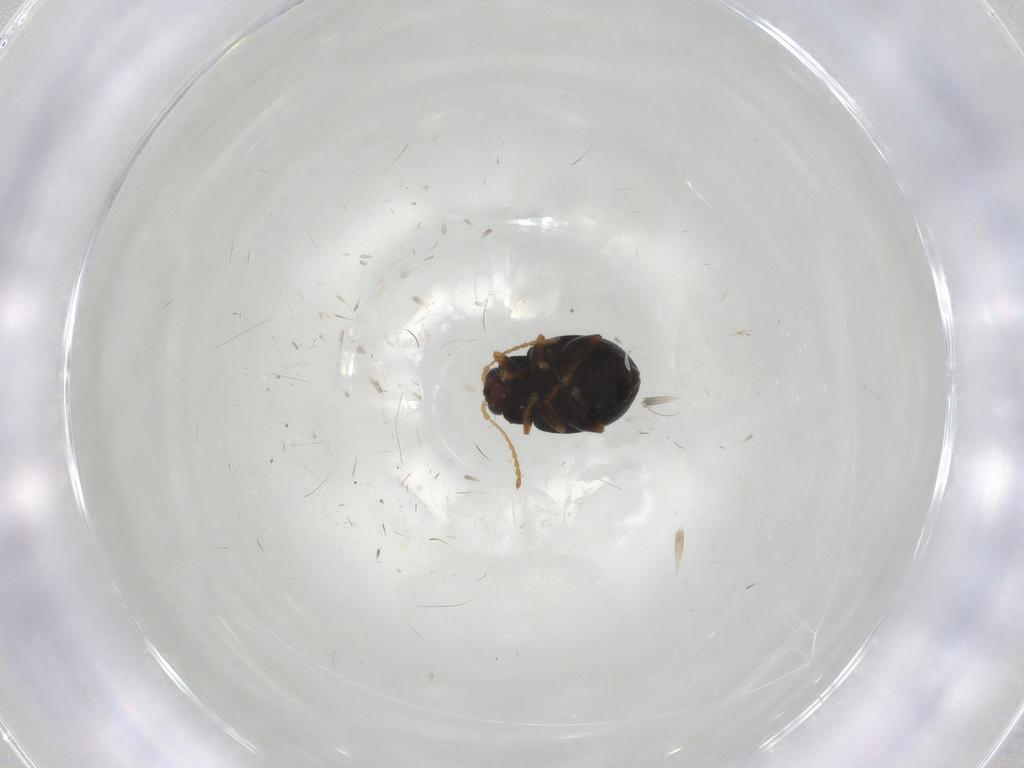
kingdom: Animalia
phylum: Arthropoda
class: Insecta
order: Coleoptera
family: Chrysomelidae
